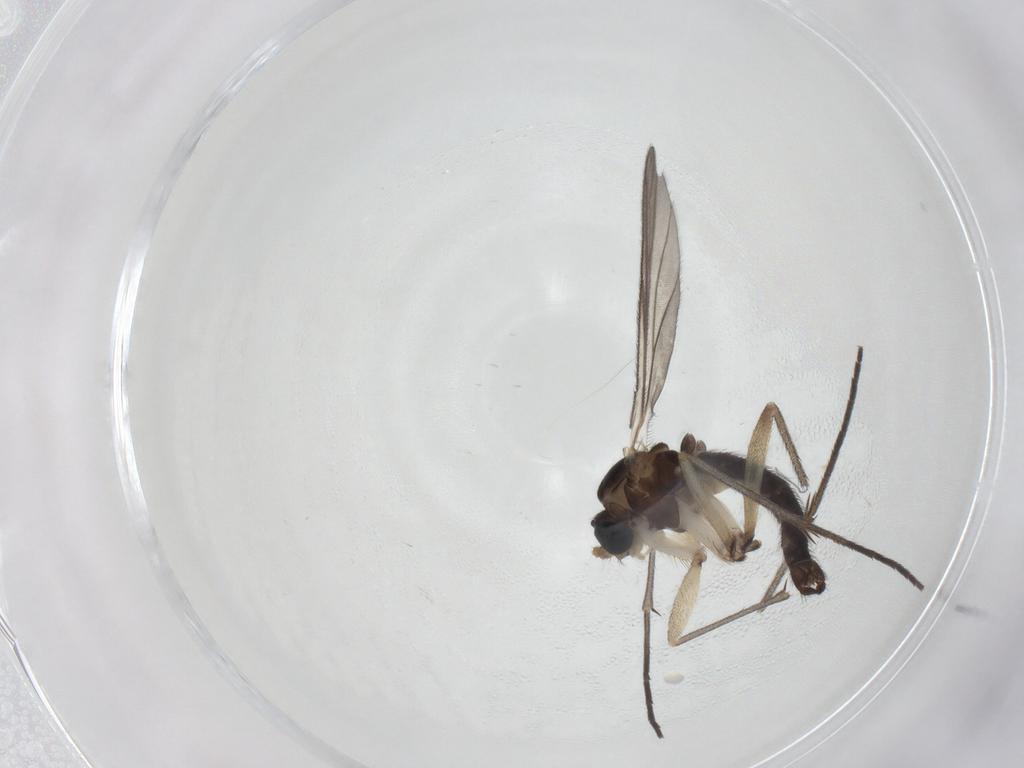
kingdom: Animalia
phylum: Arthropoda
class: Insecta
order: Diptera
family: Sciaridae
